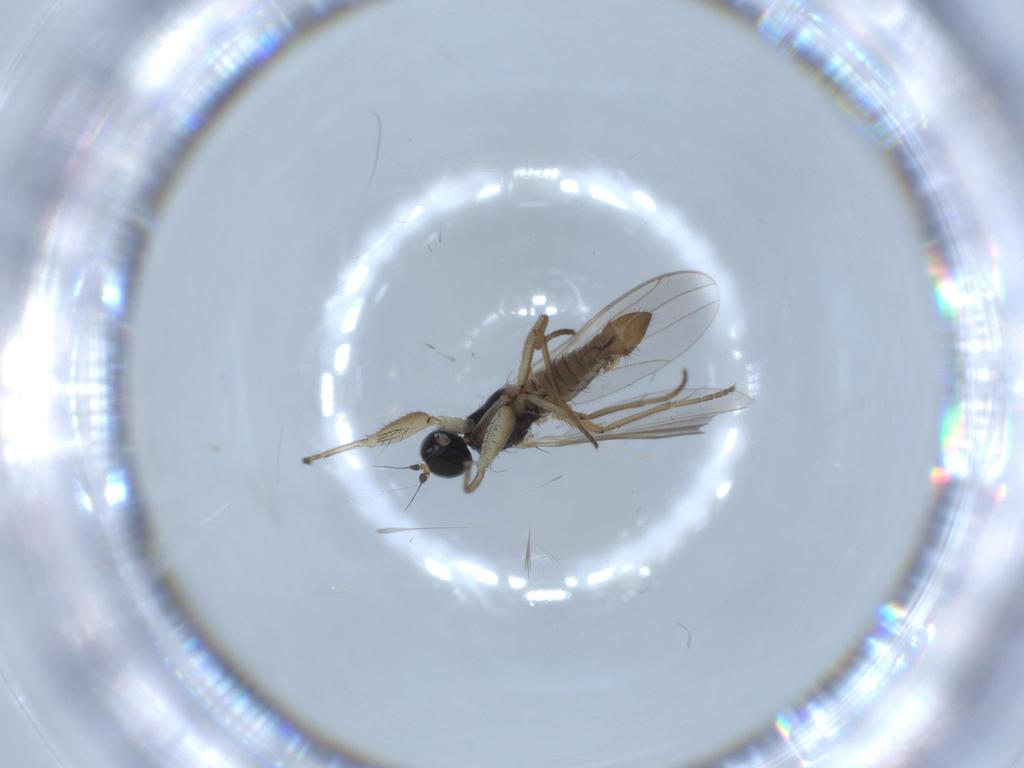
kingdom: Animalia
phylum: Arthropoda
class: Insecta
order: Diptera
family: Empididae
